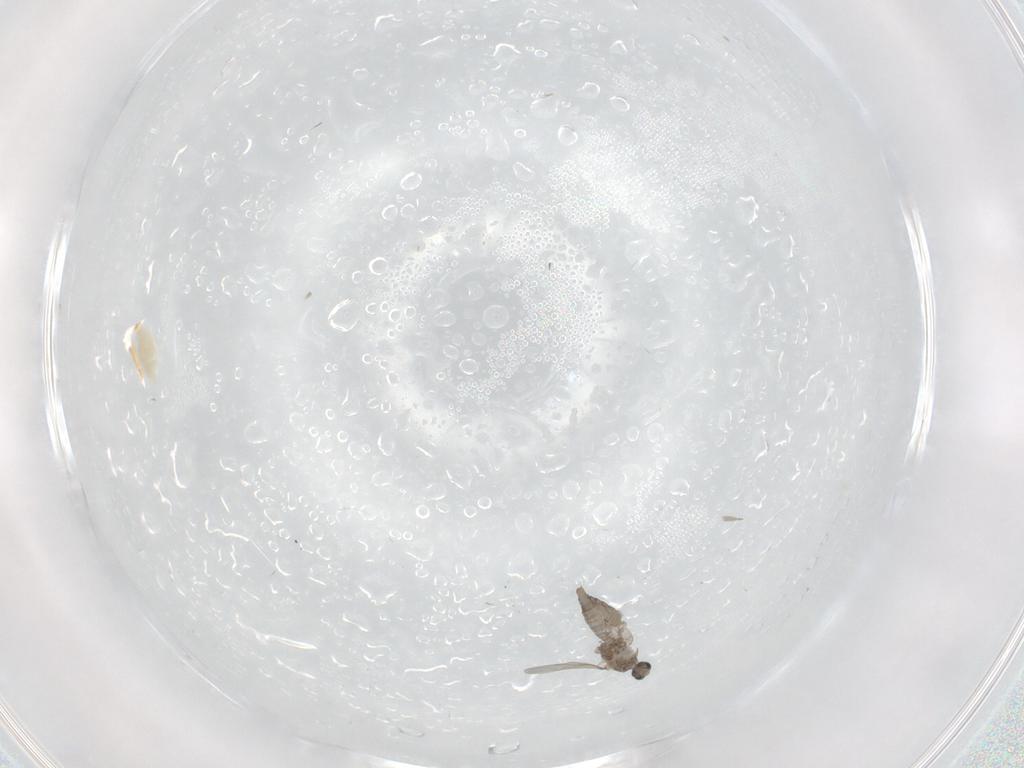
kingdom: Animalia
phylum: Arthropoda
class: Insecta
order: Diptera
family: Cecidomyiidae
